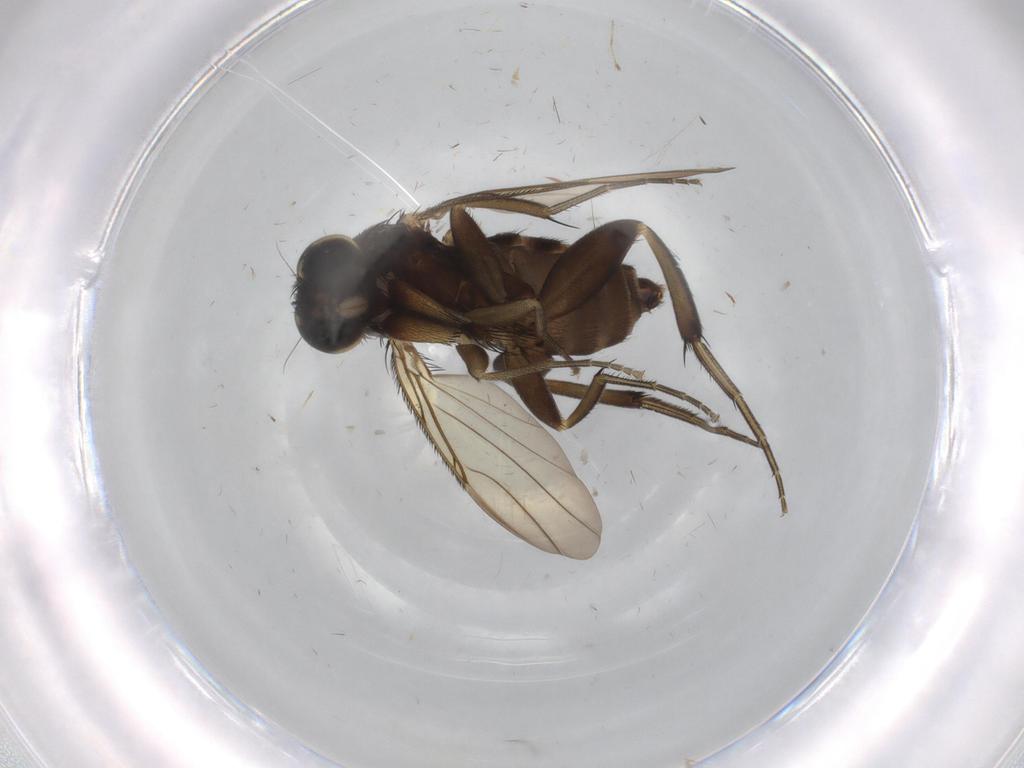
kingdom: Animalia
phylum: Arthropoda
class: Insecta
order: Diptera
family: Chironomidae
